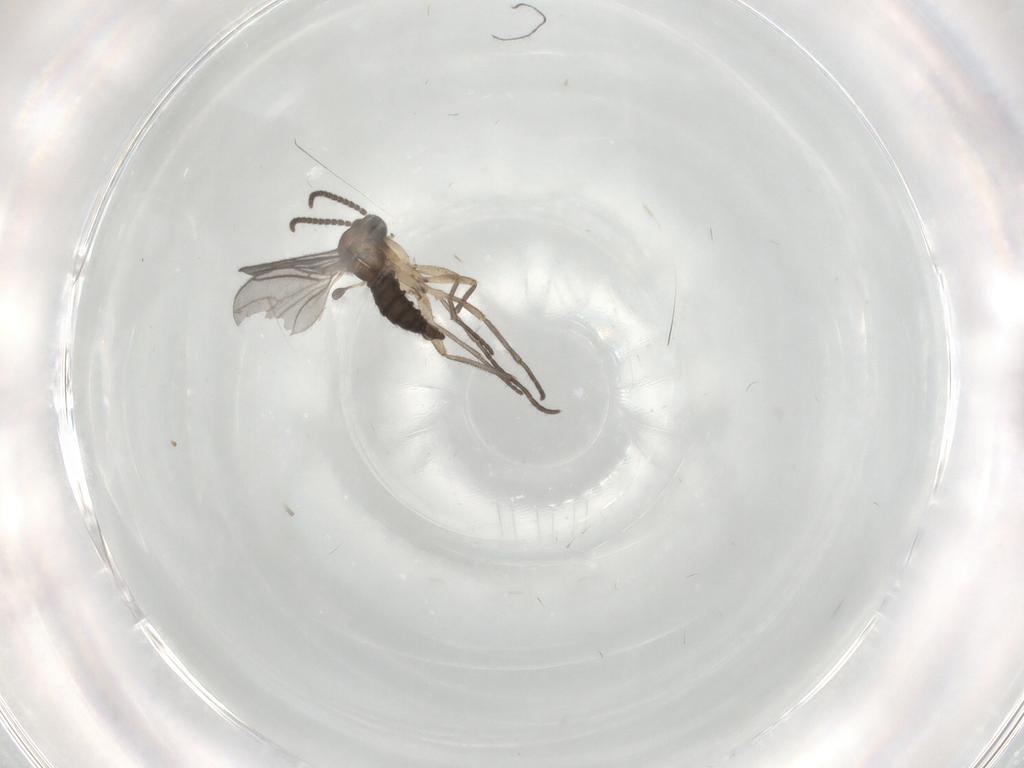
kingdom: Animalia
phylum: Arthropoda
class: Insecta
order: Diptera
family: Sciaridae
